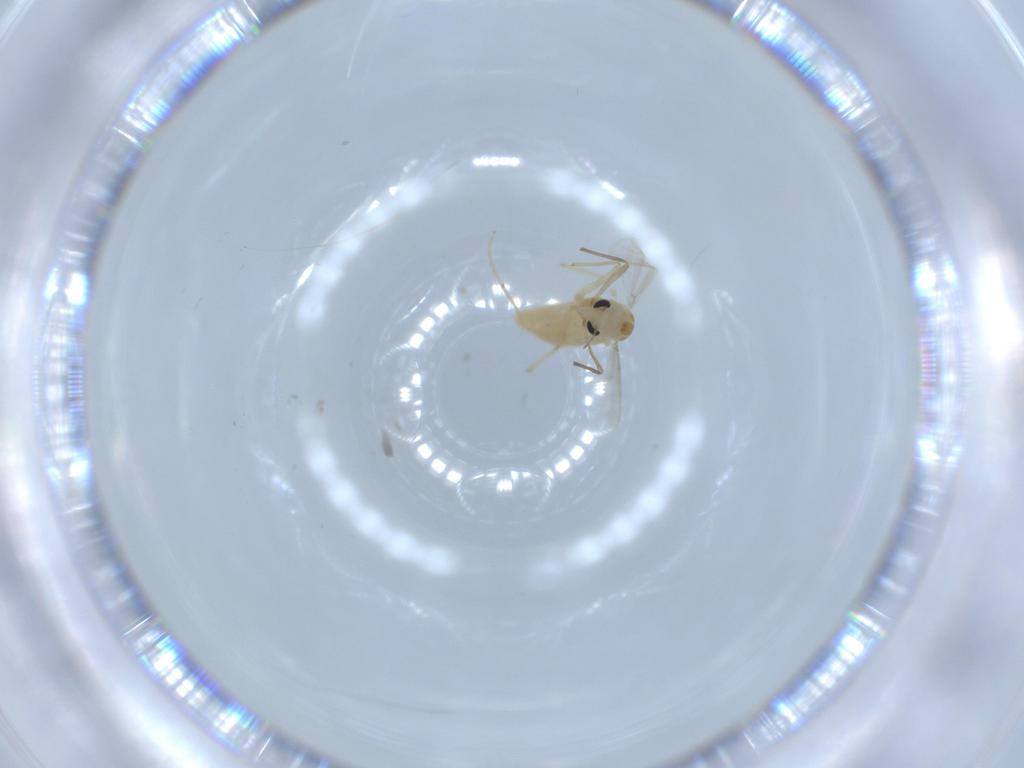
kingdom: Animalia
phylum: Arthropoda
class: Insecta
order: Diptera
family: Chironomidae
